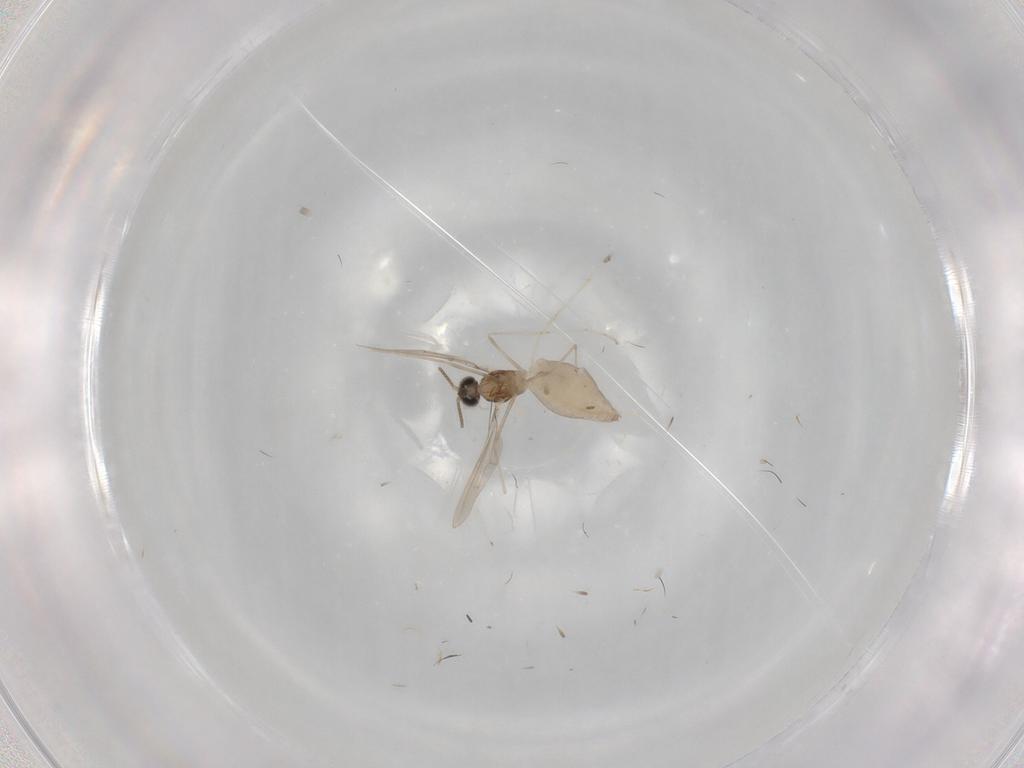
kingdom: Animalia
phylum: Arthropoda
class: Insecta
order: Diptera
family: Cecidomyiidae
